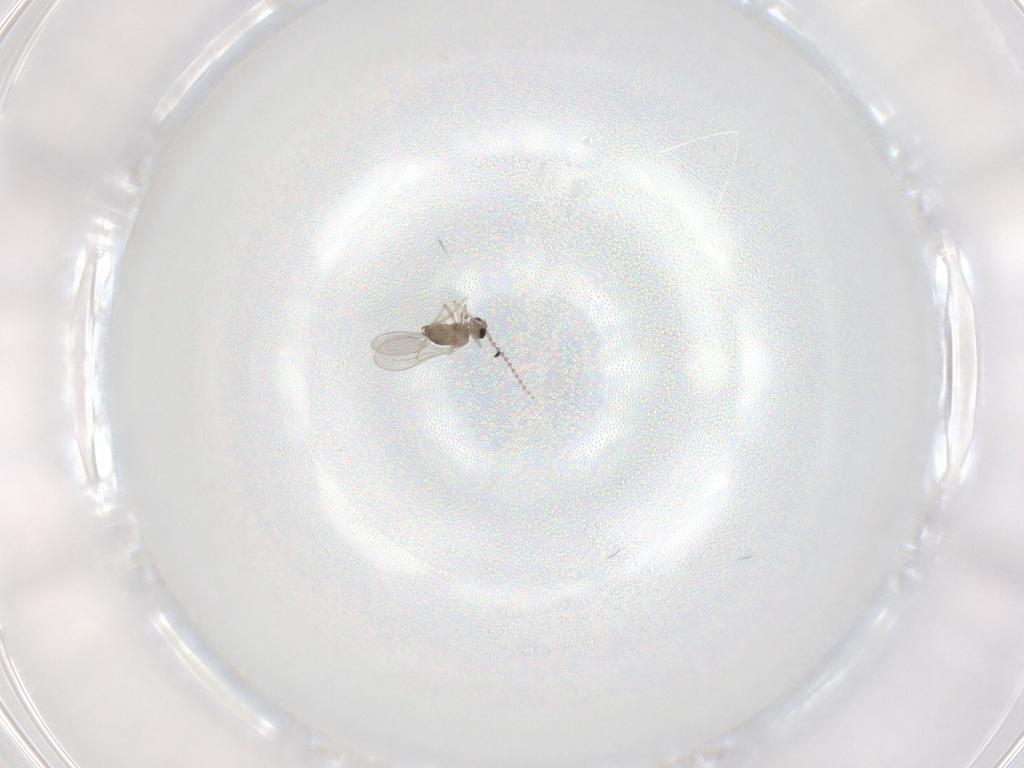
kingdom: Animalia
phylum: Arthropoda
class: Insecta
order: Diptera
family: Cecidomyiidae
